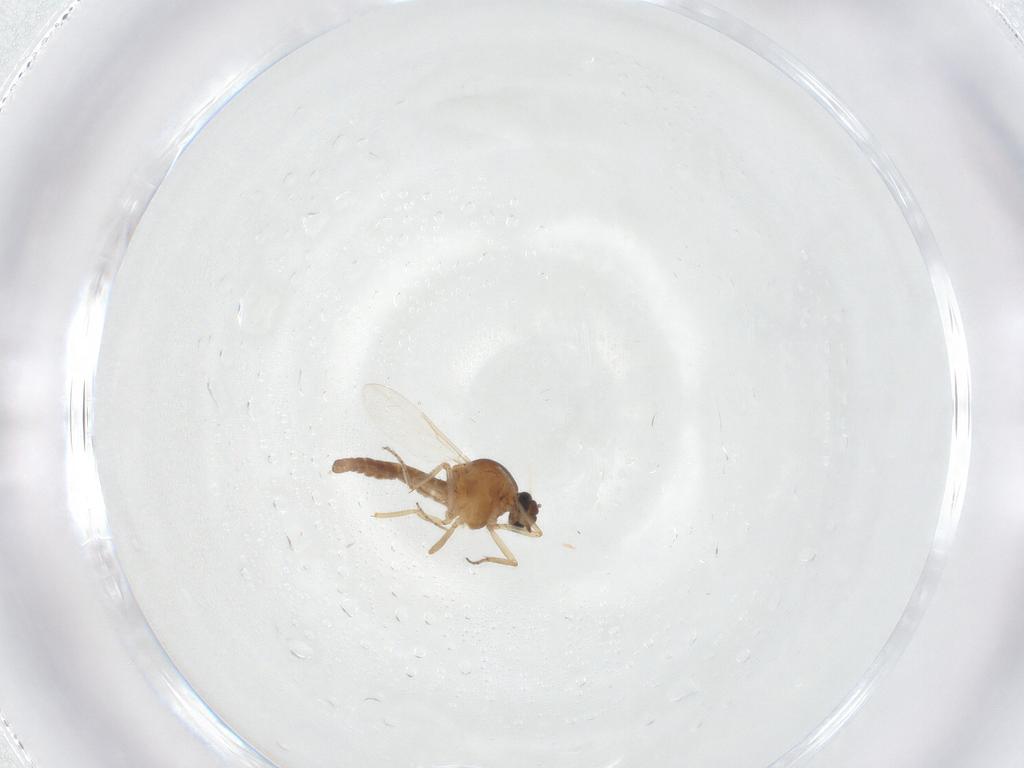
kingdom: Animalia
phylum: Arthropoda
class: Insecta
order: Diptera
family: Ceratopogonidae
